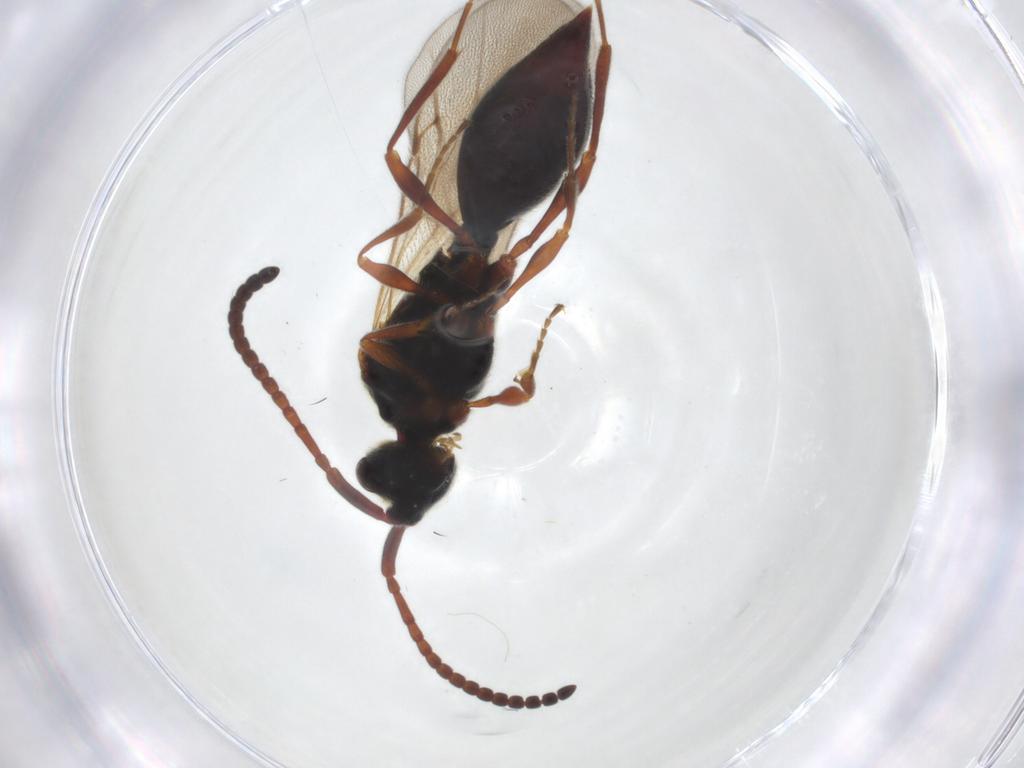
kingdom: Animalia
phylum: Arthropoda
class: Insecta
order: Hymenoptera
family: Diapriidae
